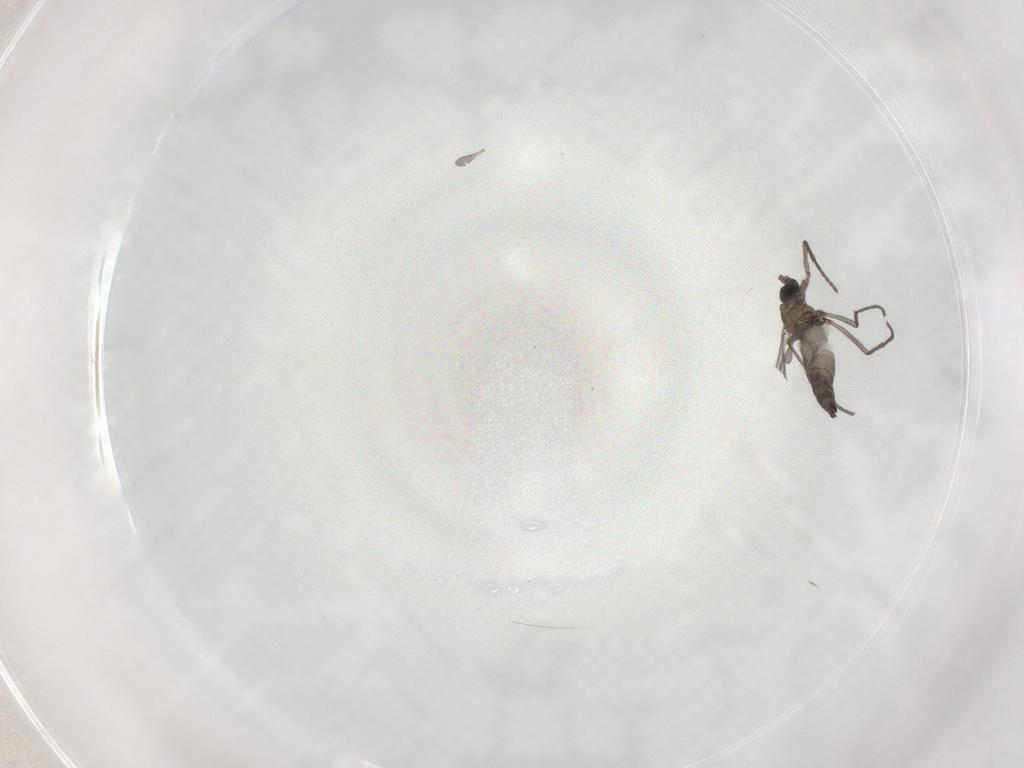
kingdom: Animalia
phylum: Arthropoda
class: Insecta
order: Diptera
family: Sciaridae
